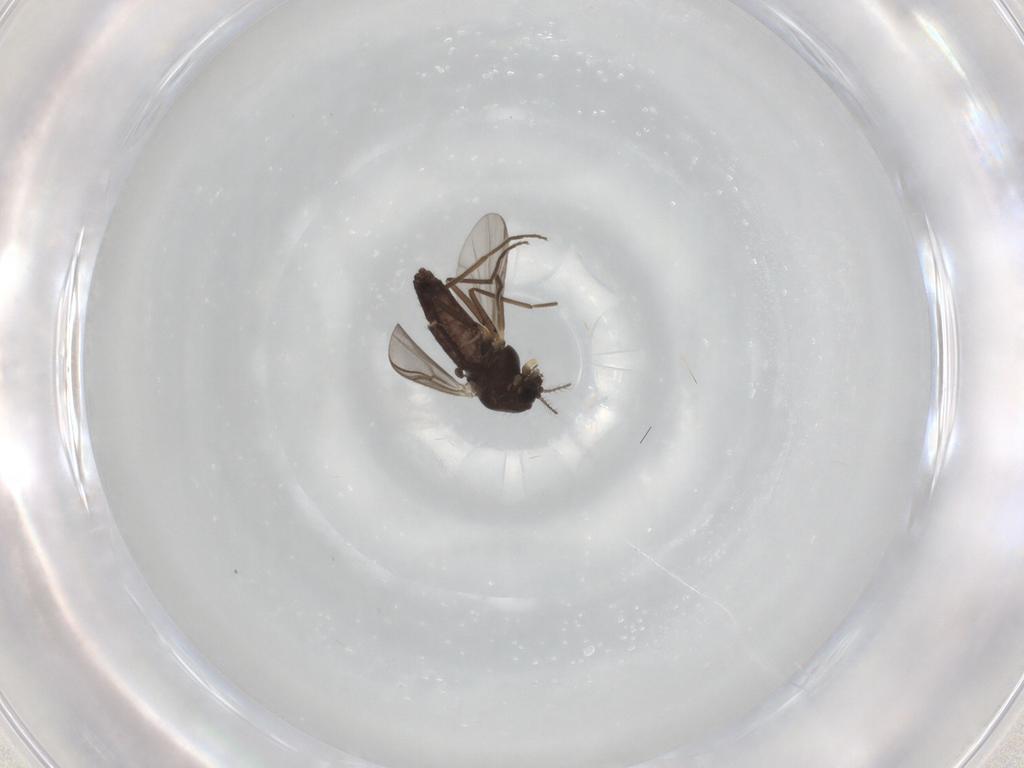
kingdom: Animalia
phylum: Arthropoda
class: Insecta
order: Diptera
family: Chironomidae
